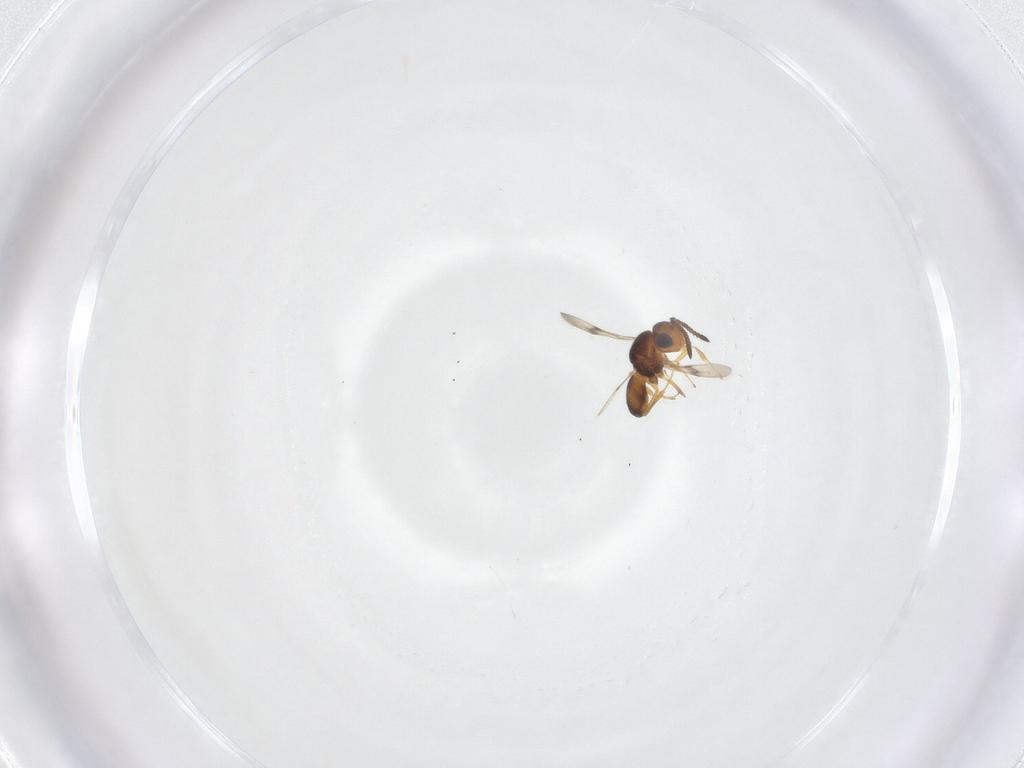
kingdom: Animalia
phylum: Arthropoda
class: Insecta
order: Hymenoptera
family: Scelionidae
